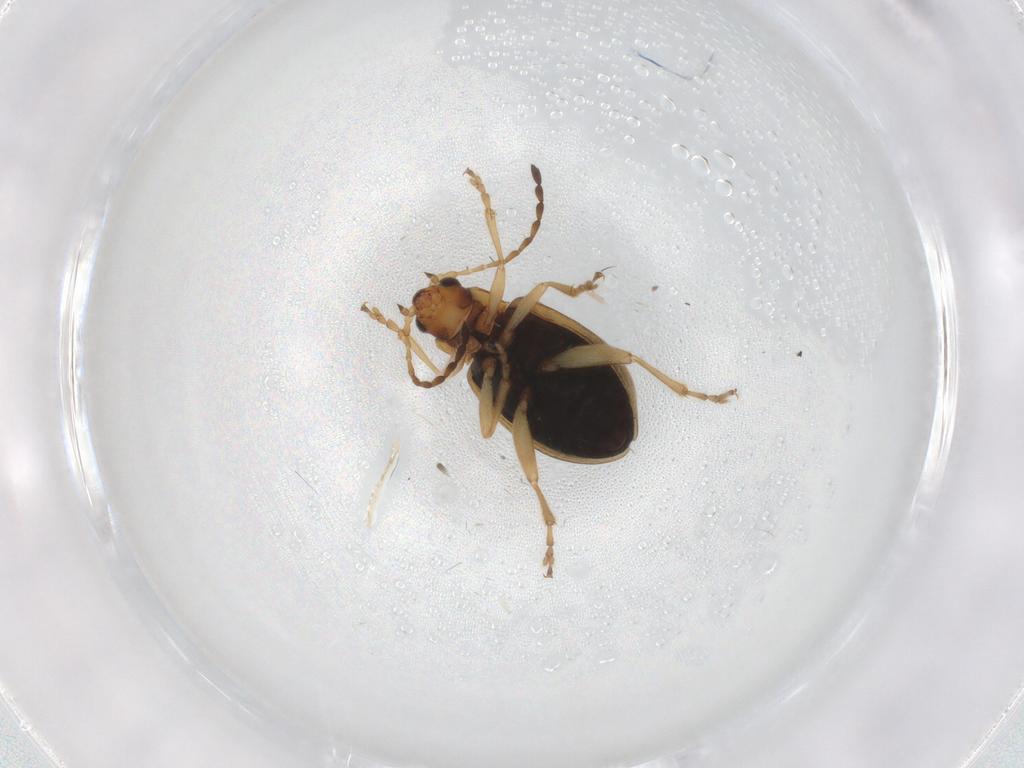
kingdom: Animalia
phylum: Arthropoda
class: Insecta
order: Coleoptera
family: Chrysomelidae
